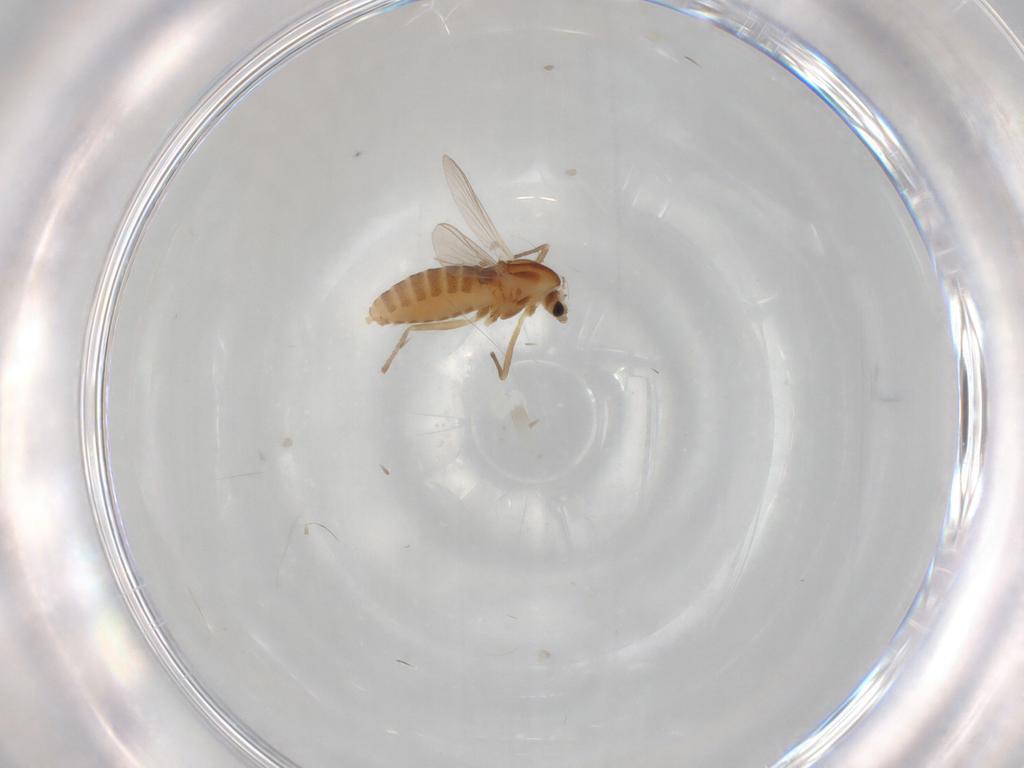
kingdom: Animalia
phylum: Arthropoda
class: Insecta
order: Diptera
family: Chironomidae
